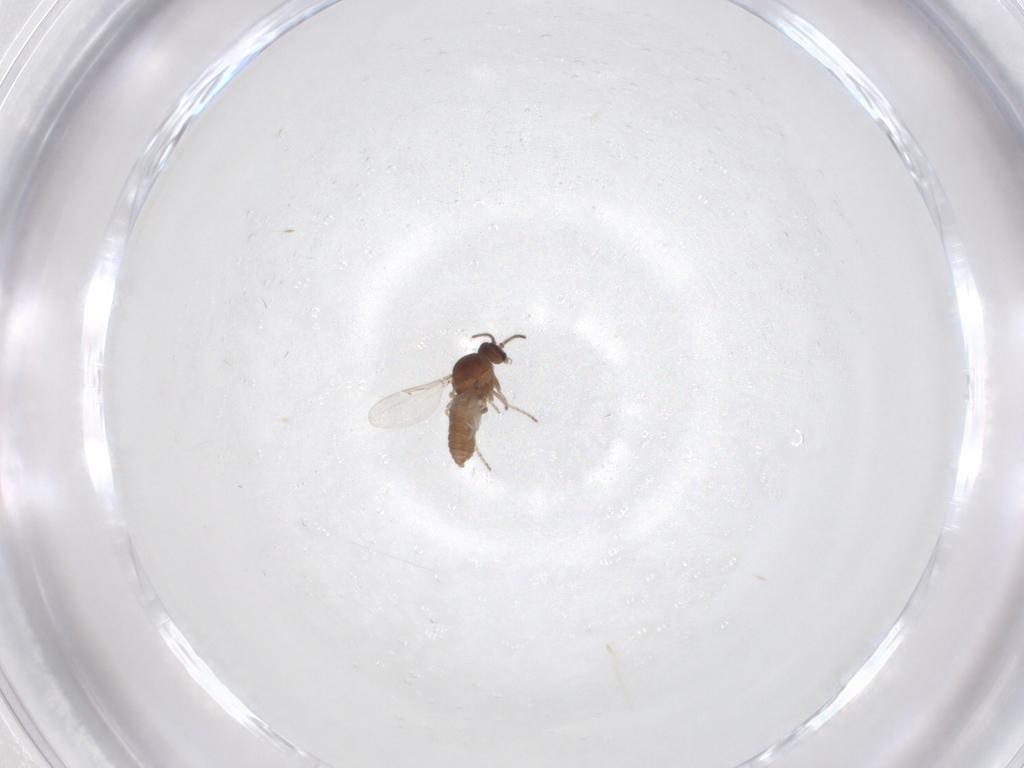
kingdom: Animalia
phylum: Arthropoda
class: Insecta
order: Diptera
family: Ceratopogonidae
